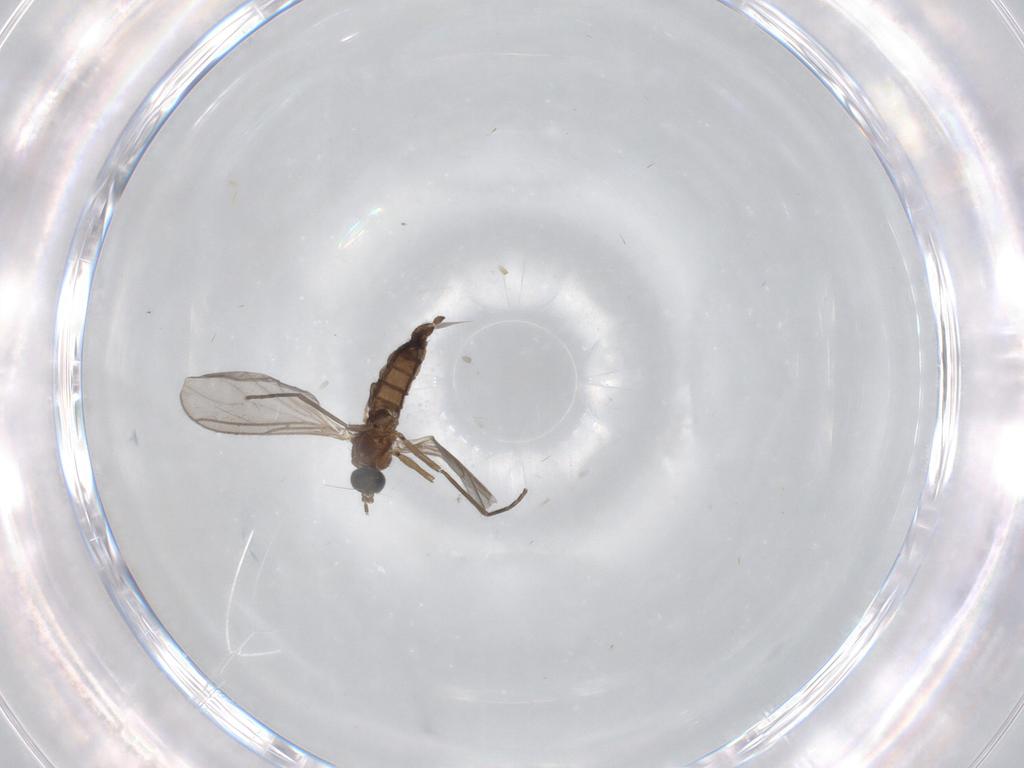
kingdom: Animalia
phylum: Arthropoda
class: Insecta
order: Diptera
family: Sciaridae
